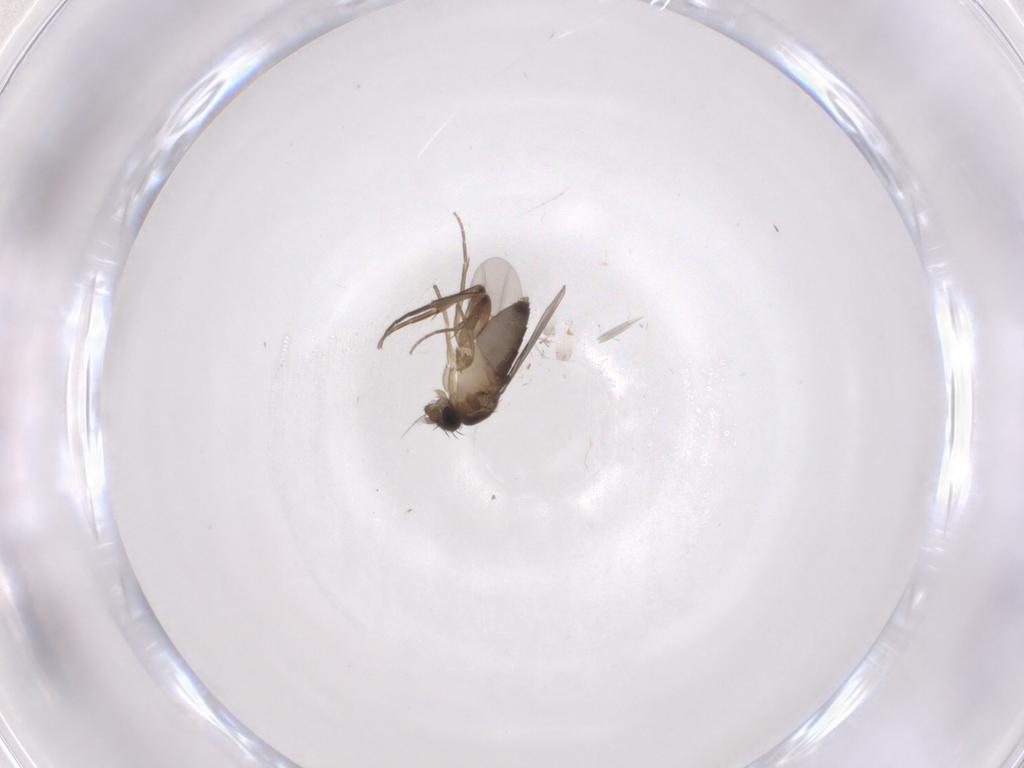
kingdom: Animalia
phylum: Arthropoda
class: Insecta
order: Diptera
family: Phoridae
